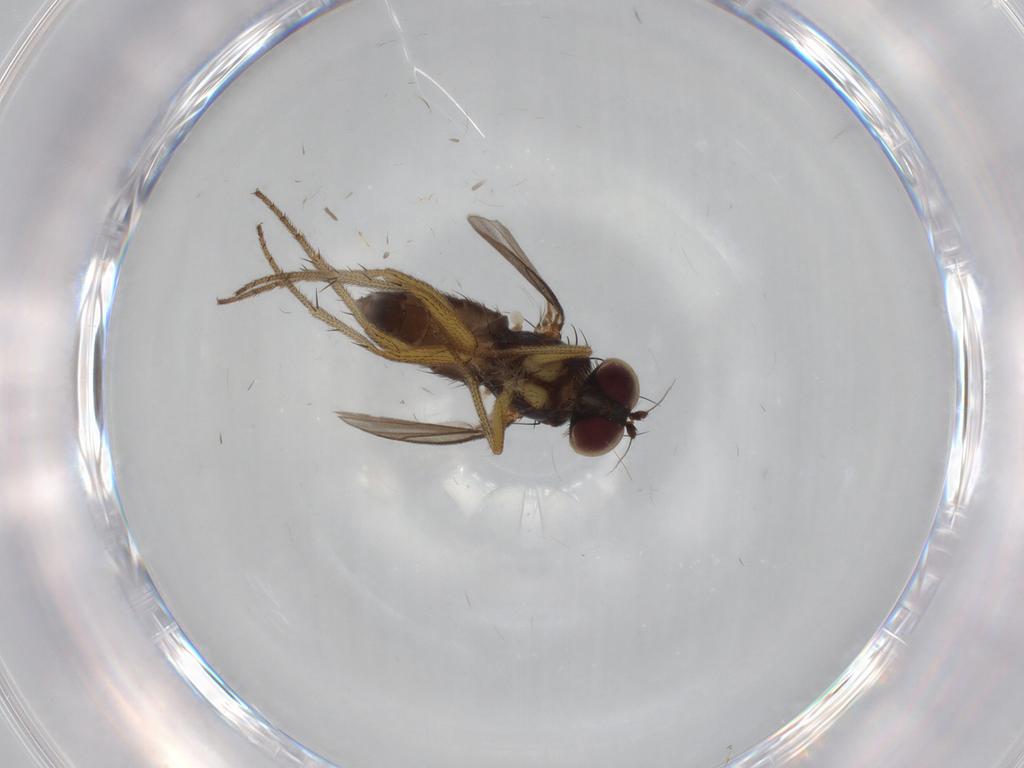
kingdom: Animalia
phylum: Arthropoda
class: Insecta
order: Diptera
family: Dolichopodidae
